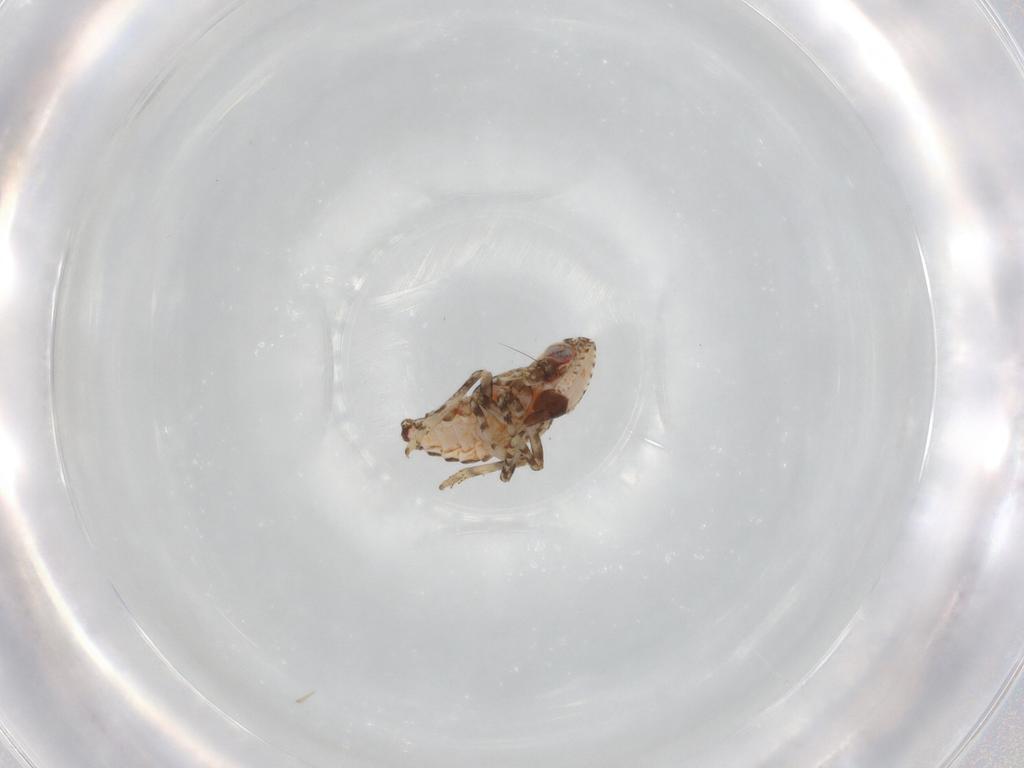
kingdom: Animalia
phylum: Arthropoda
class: Insecta
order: Hemiptera
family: Tropiduchidae
